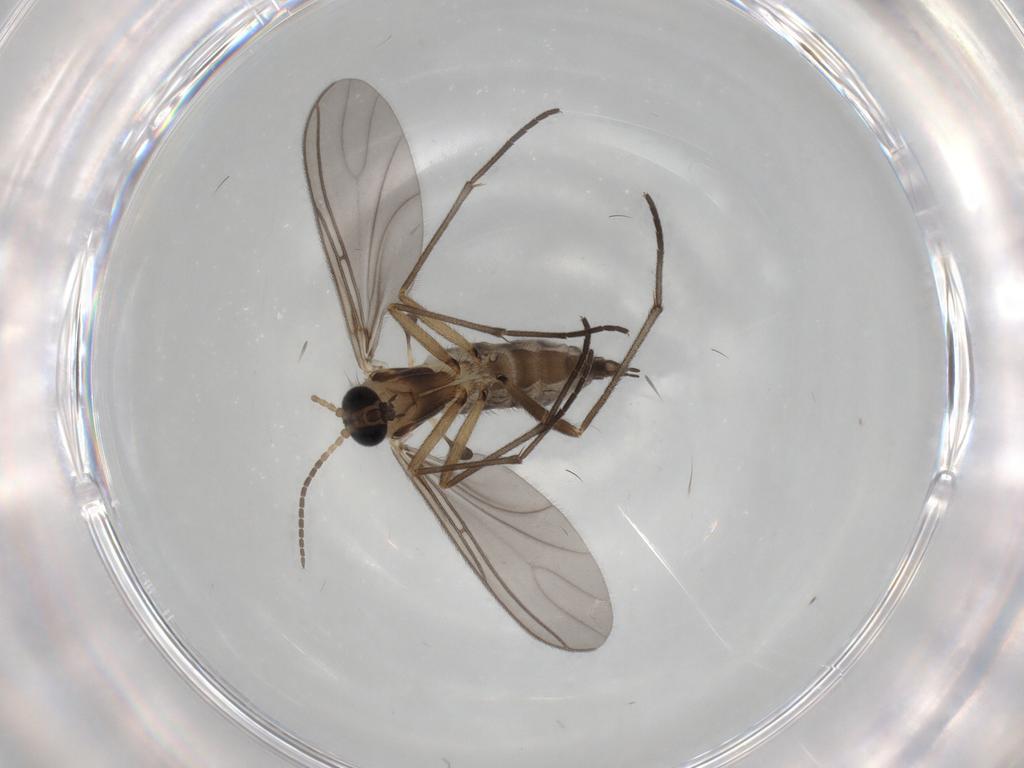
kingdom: Animalia
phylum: Arthropoda
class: Insecta
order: Diptera
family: Sciaridae
